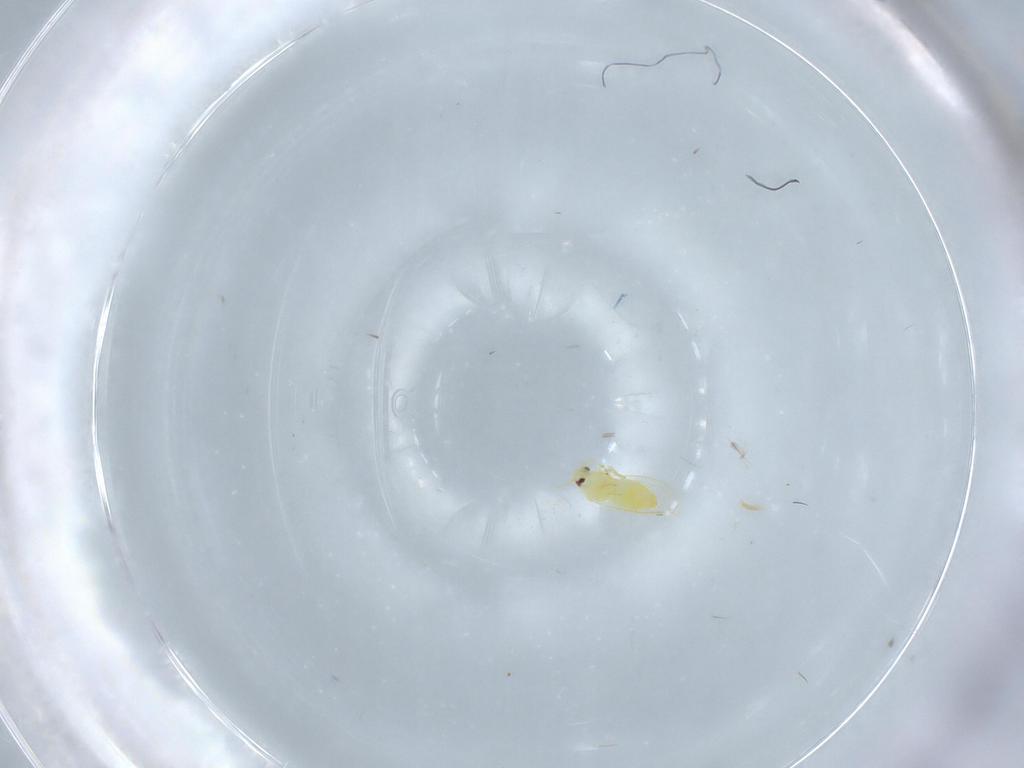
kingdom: Animalia
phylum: Arthropoda
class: Insecta
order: Hemiptera
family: Aleyrodidae
